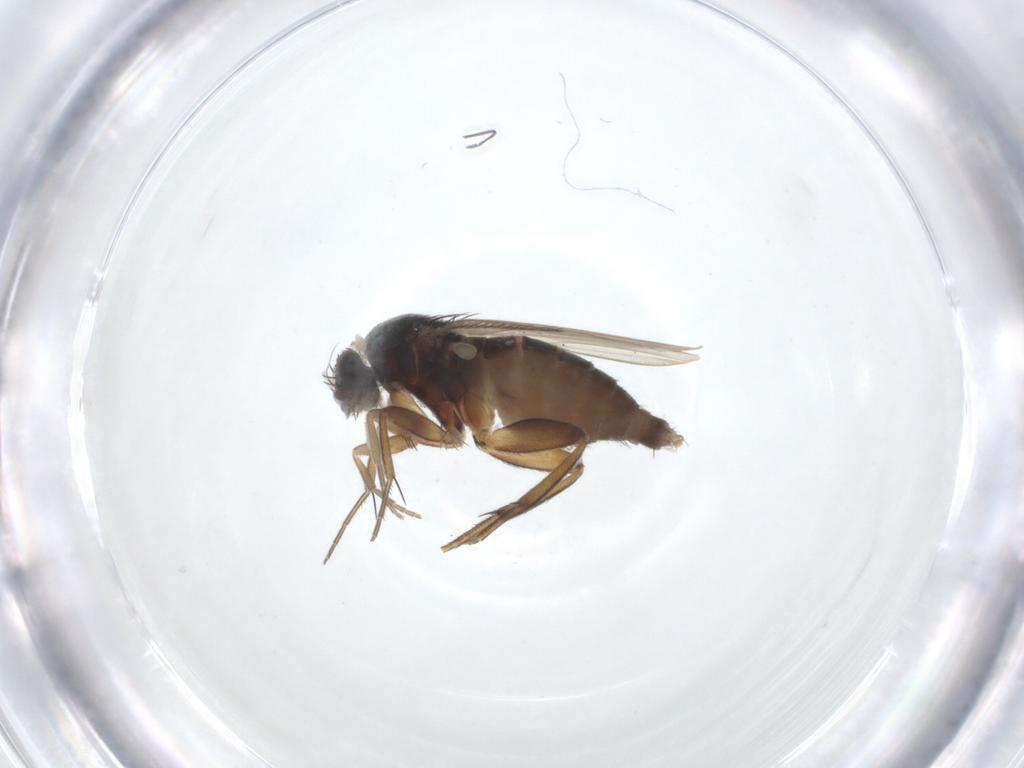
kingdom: Animalia
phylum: Arthropoda
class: Insecta
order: Diptera
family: Phoridae
